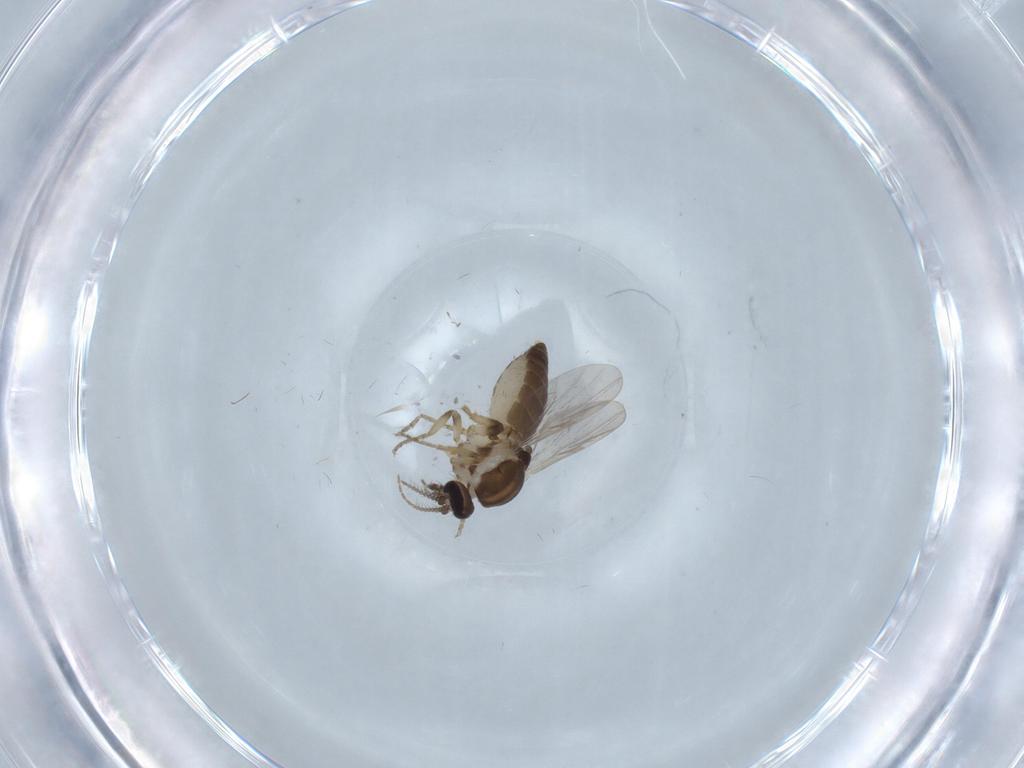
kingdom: Animalia
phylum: Arthropoda
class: Insecta
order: Diptera
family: Ceratopogonidae
